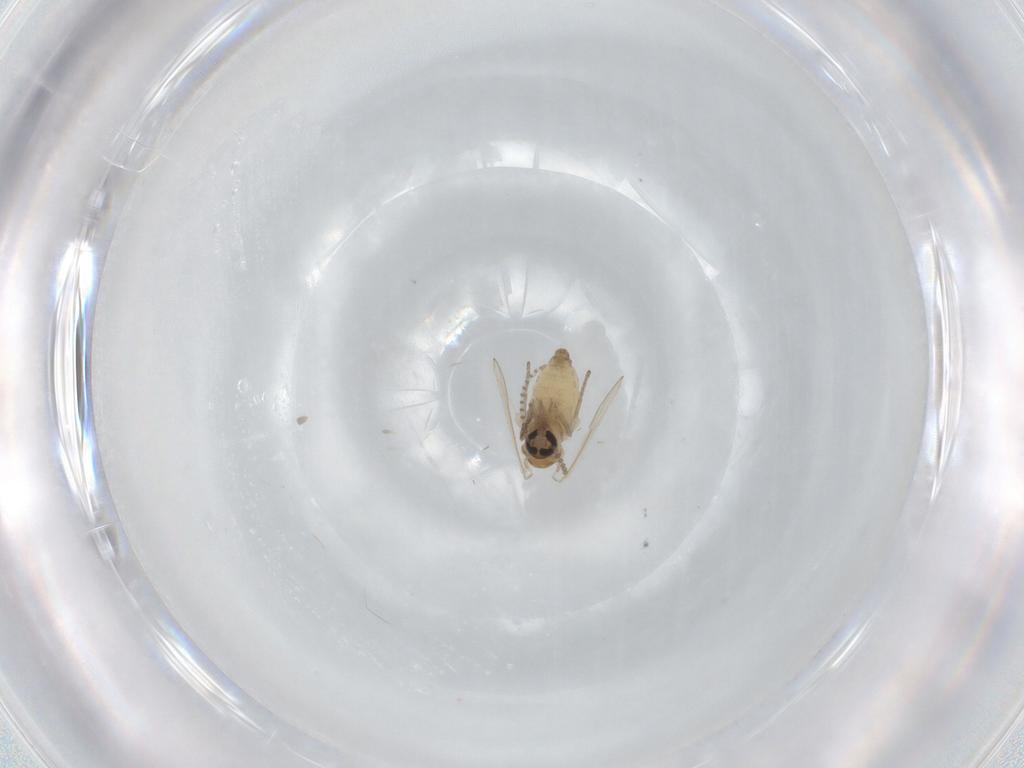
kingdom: Animalia
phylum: Arthropoda
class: Insecta
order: Diptera
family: Psychodidae
